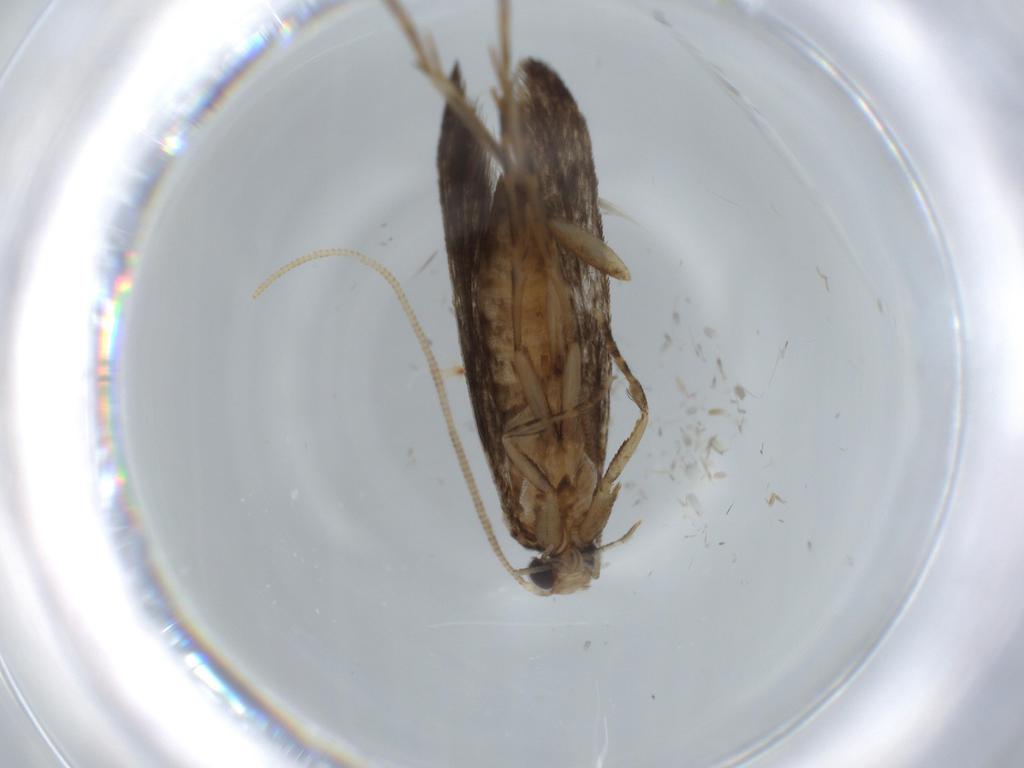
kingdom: Animalia
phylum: Arthropoda
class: Insecta
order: Lepidoptera
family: Tineidae
